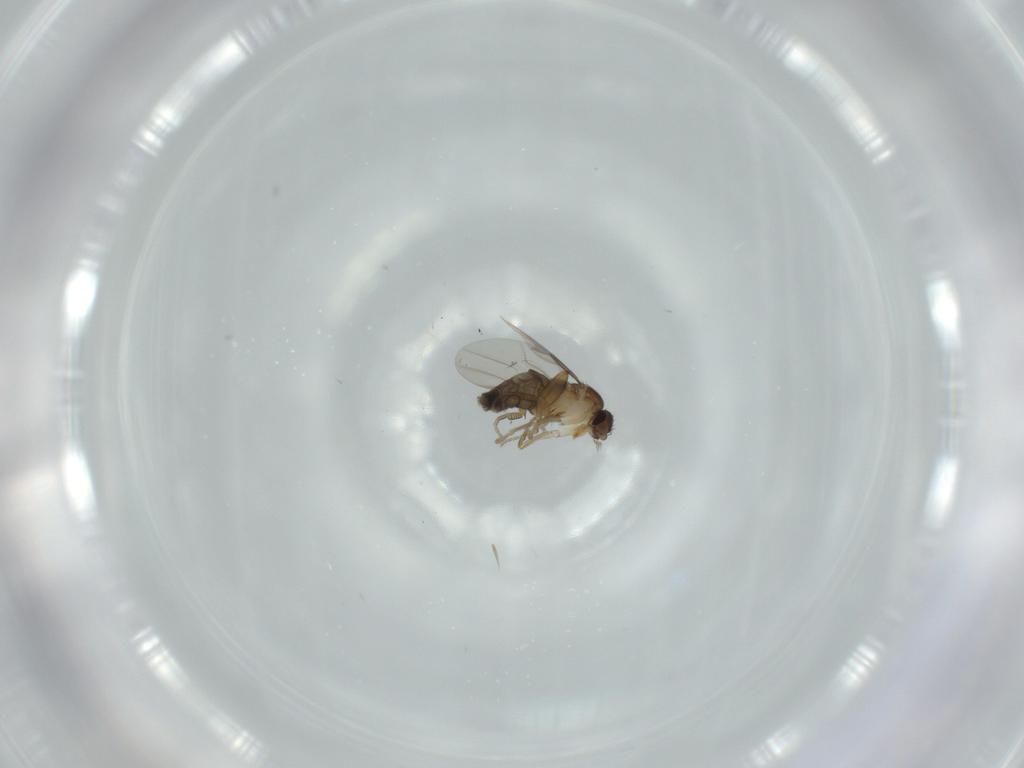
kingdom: Animalia
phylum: Arthropoda
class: Insecta
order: Diptera
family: Phoridae
